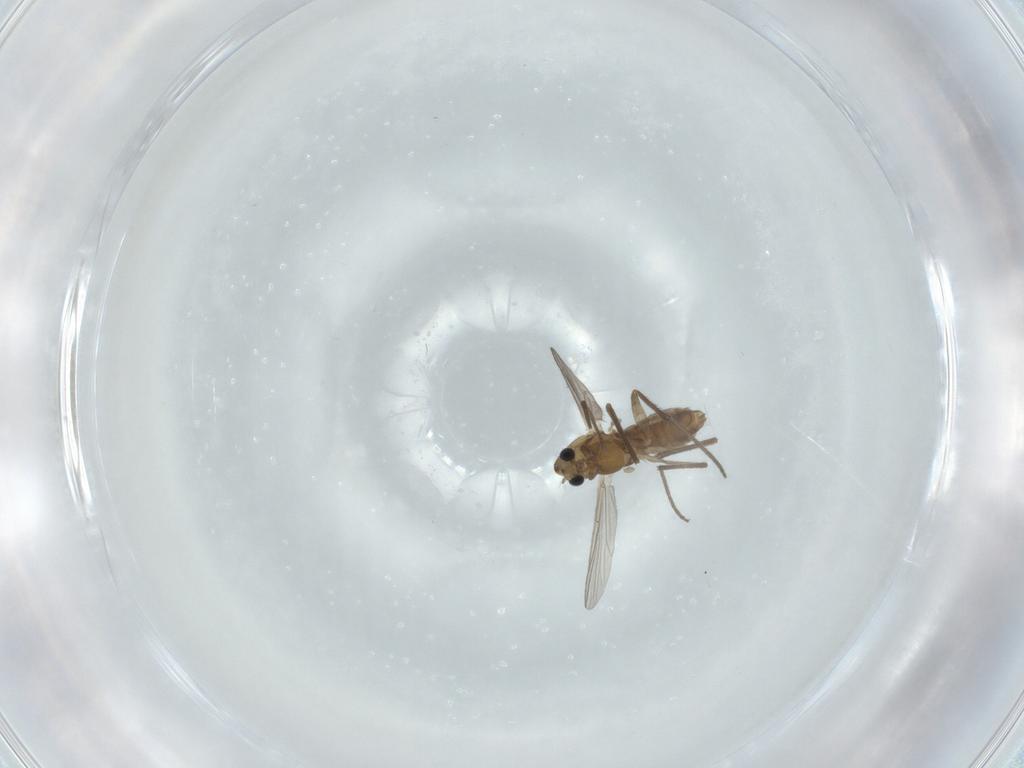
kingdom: Animalia
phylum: Arthropoda
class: Insecta
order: Diptera
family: Chironomidae
